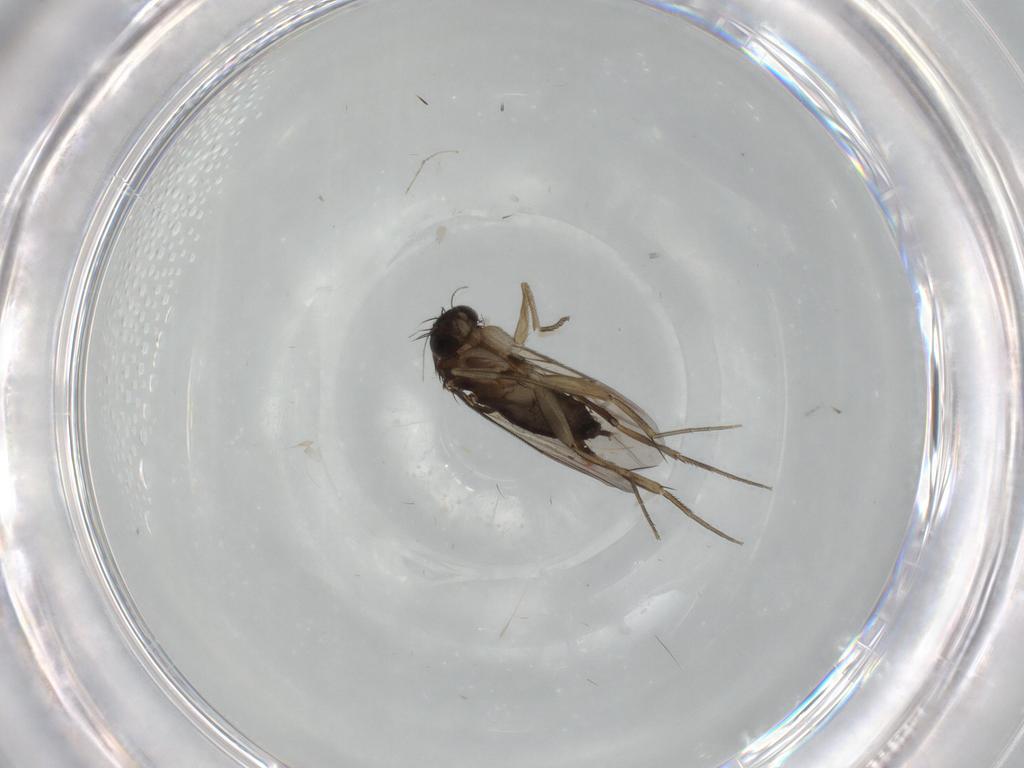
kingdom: Animalia
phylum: Arthropoda
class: Insecta
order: Diptera
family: Phoridae
